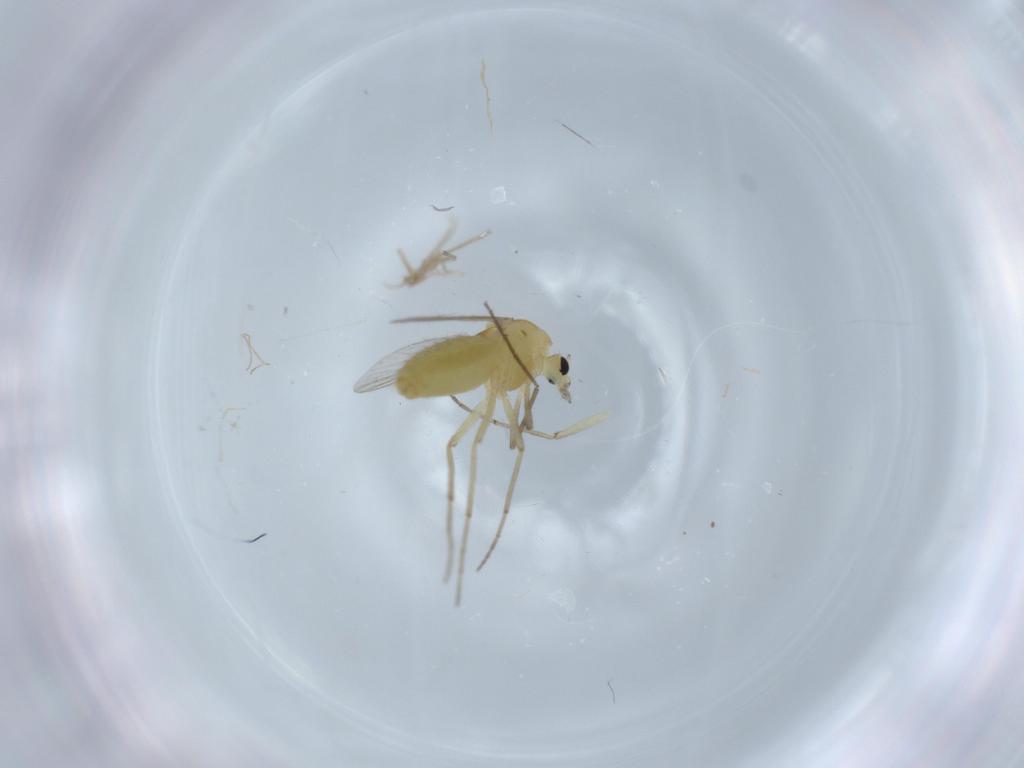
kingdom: Animalia
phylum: Arthropoda
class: Insecta
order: Diptera
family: Chironomidae
